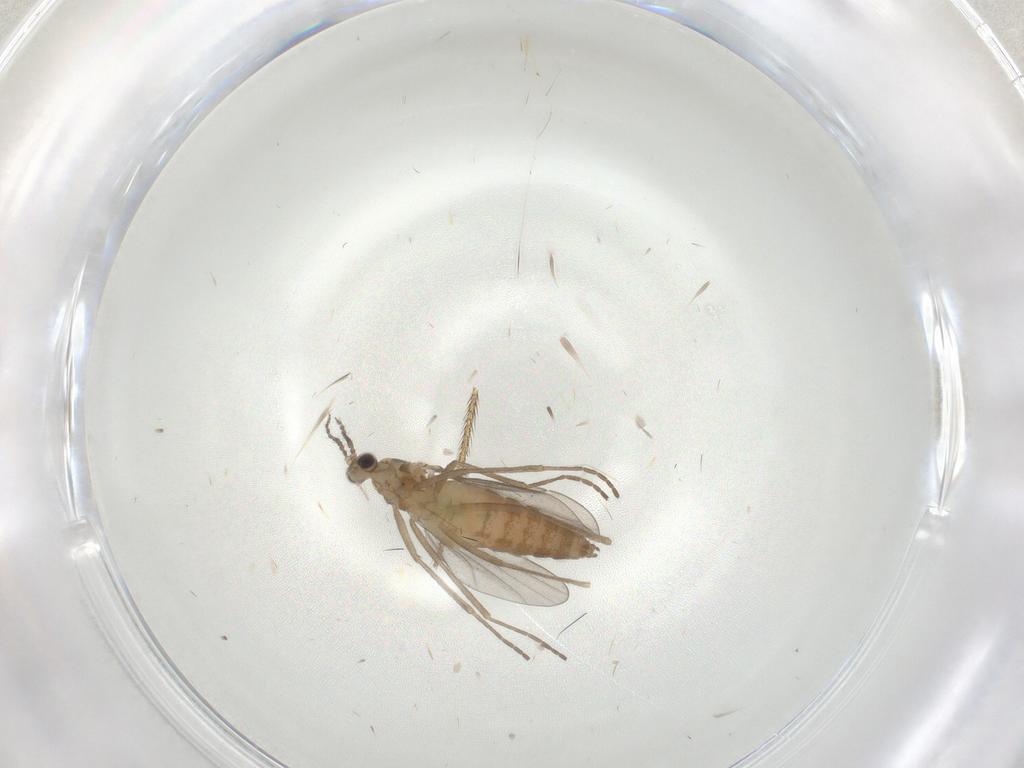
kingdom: Animalia
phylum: Arthropoda
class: Insecta
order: Diptera
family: Cecidomyiidae
